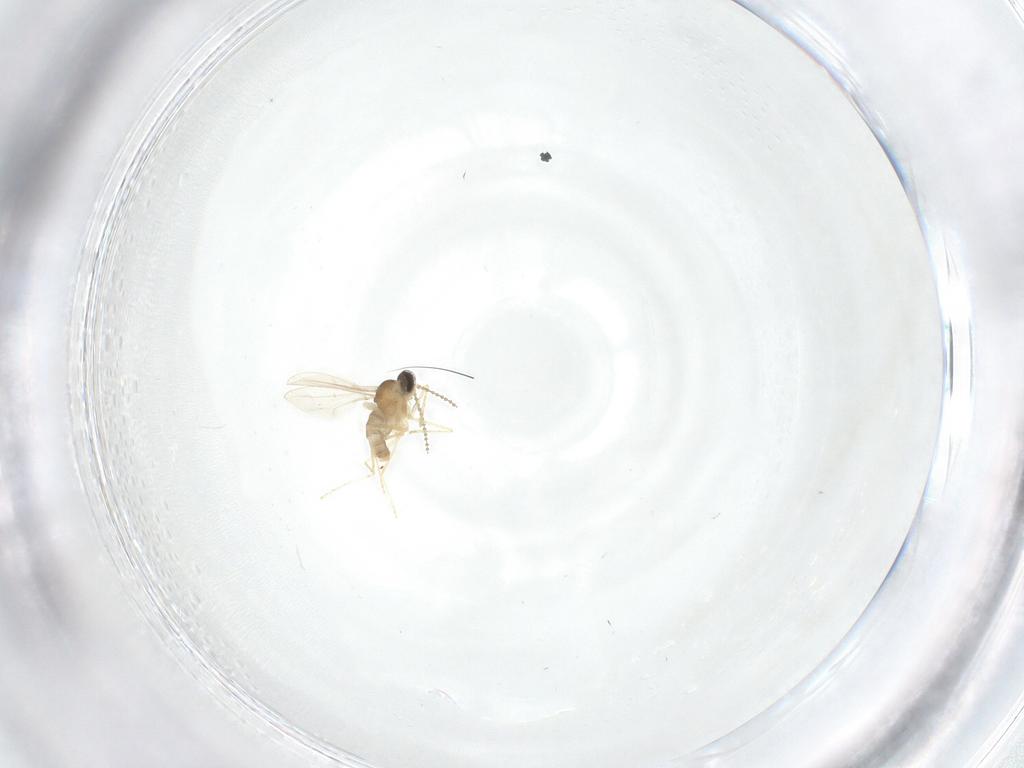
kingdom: Animalia
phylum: Arthropoda
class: Insecta
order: Diptera
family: Cecidomyiidae
